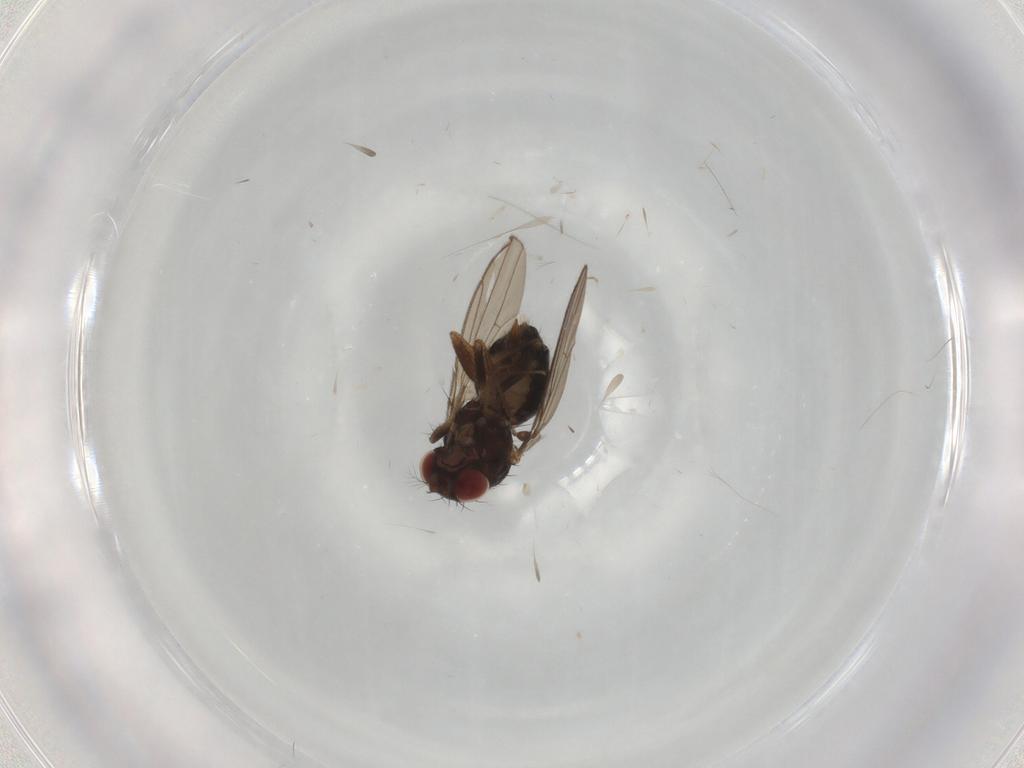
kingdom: Animalia
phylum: Arthropoda
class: Insecta
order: Diptera
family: Drosophilidae
